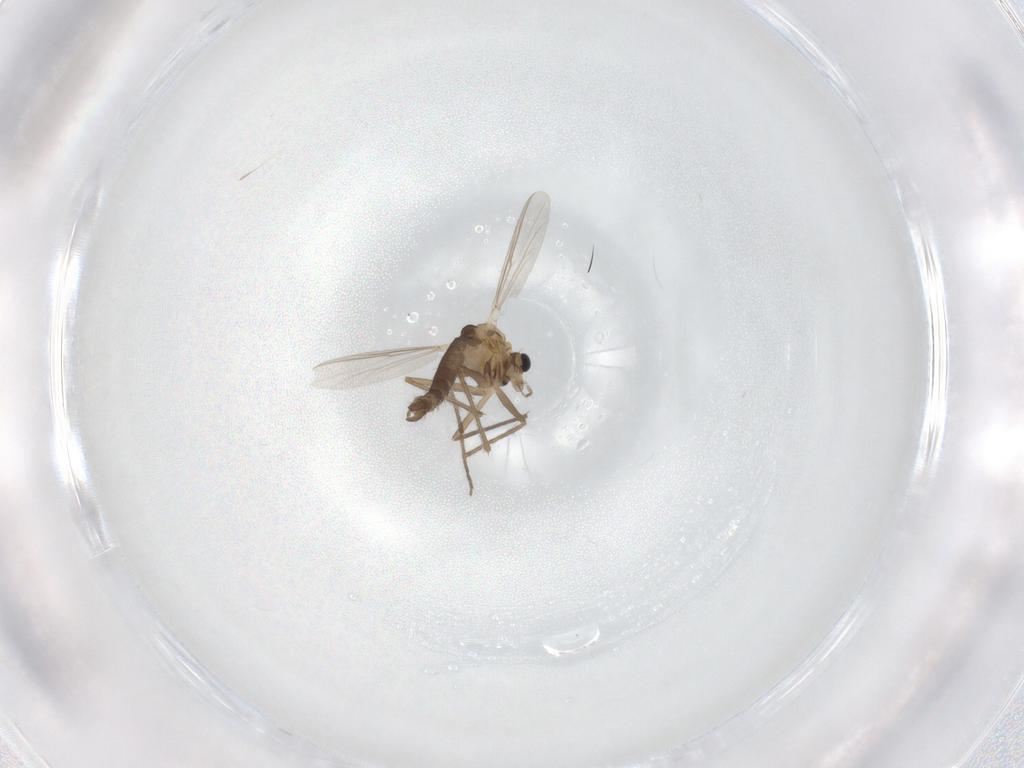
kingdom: Animalia
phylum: Arthropoda
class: Insecta
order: Diptera
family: Chironomidae
